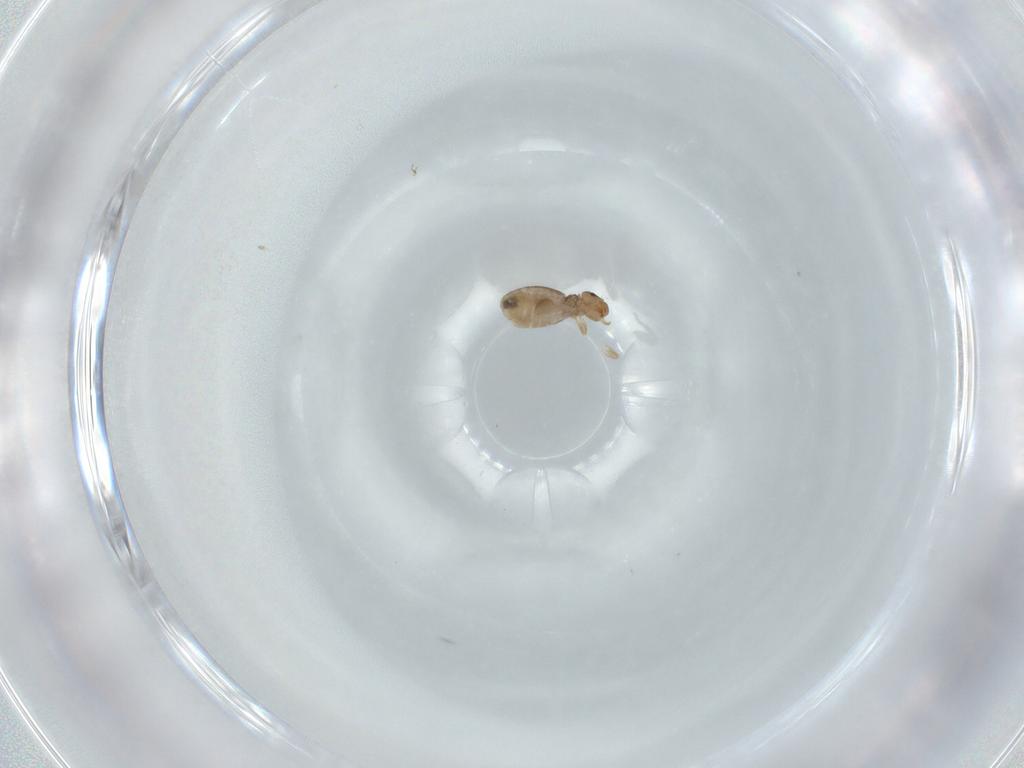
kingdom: Animalia
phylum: Arthropoda
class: Insecta
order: Psocodea
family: Liposcelididae
